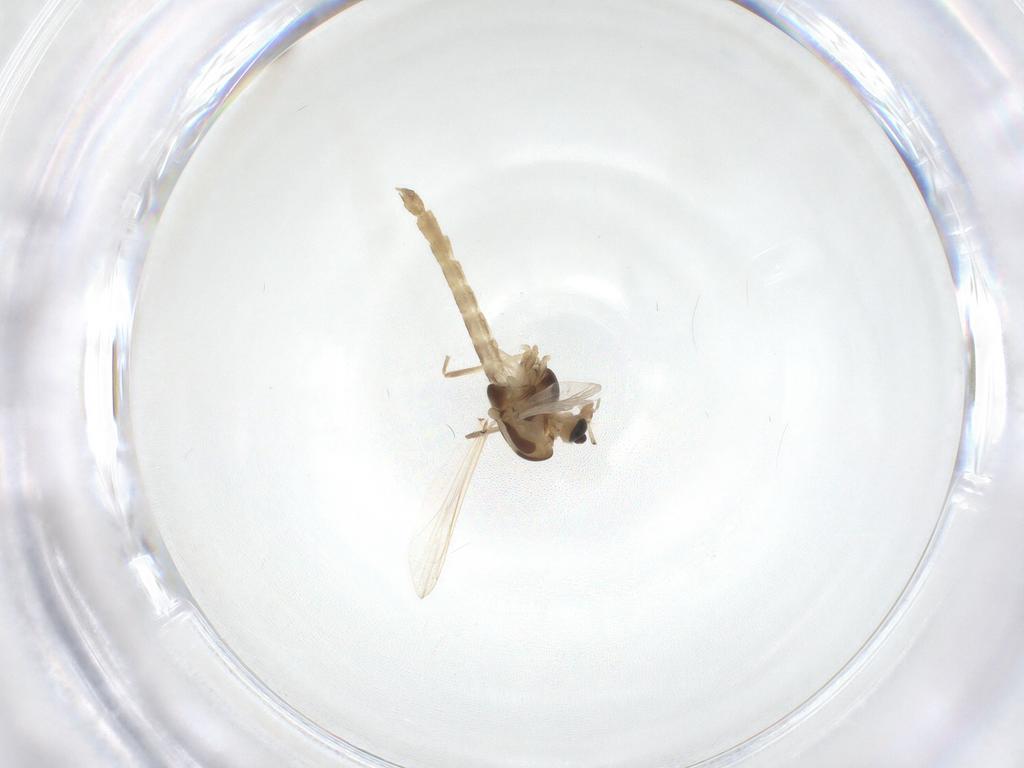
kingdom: Animalia
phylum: Arthropoda
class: Insecta
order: Diptera
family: Chironomidae
